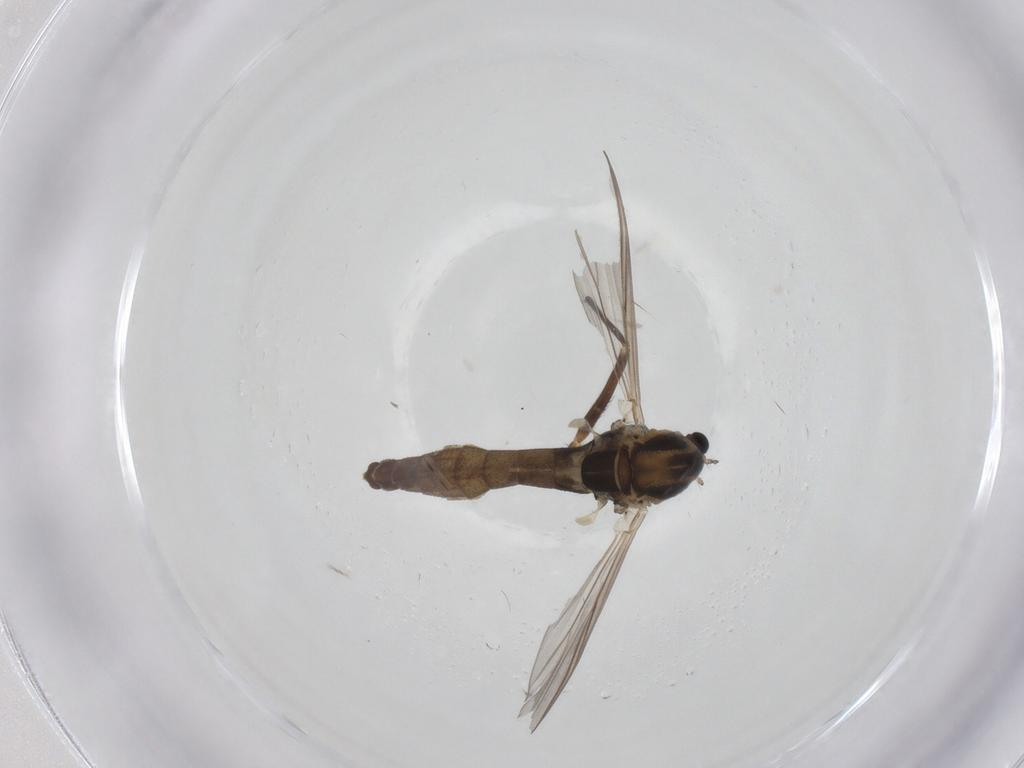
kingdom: Animalia
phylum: Arthropoda
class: Insecta
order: Diptera
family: Chironomidae
